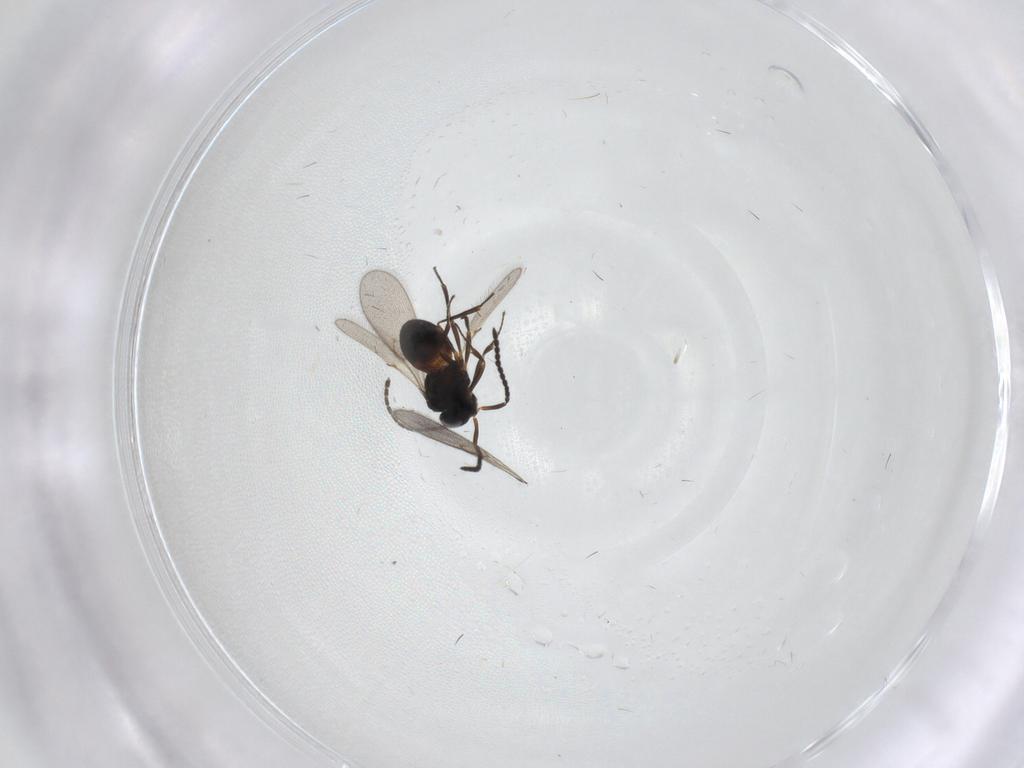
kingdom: Animalia
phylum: Arthropoda
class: Insecta
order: Hymenoptera
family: Scelionidae
